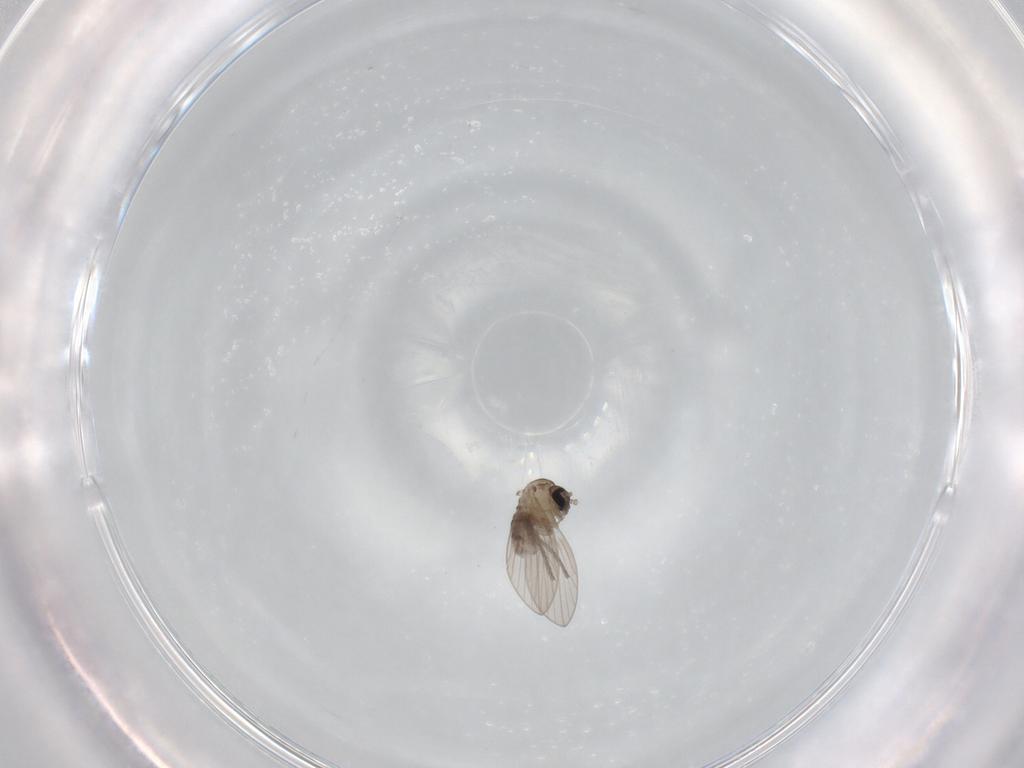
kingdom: Animalia
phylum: Arthropoda
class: Insecta
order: Diptera
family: Psychodidae
